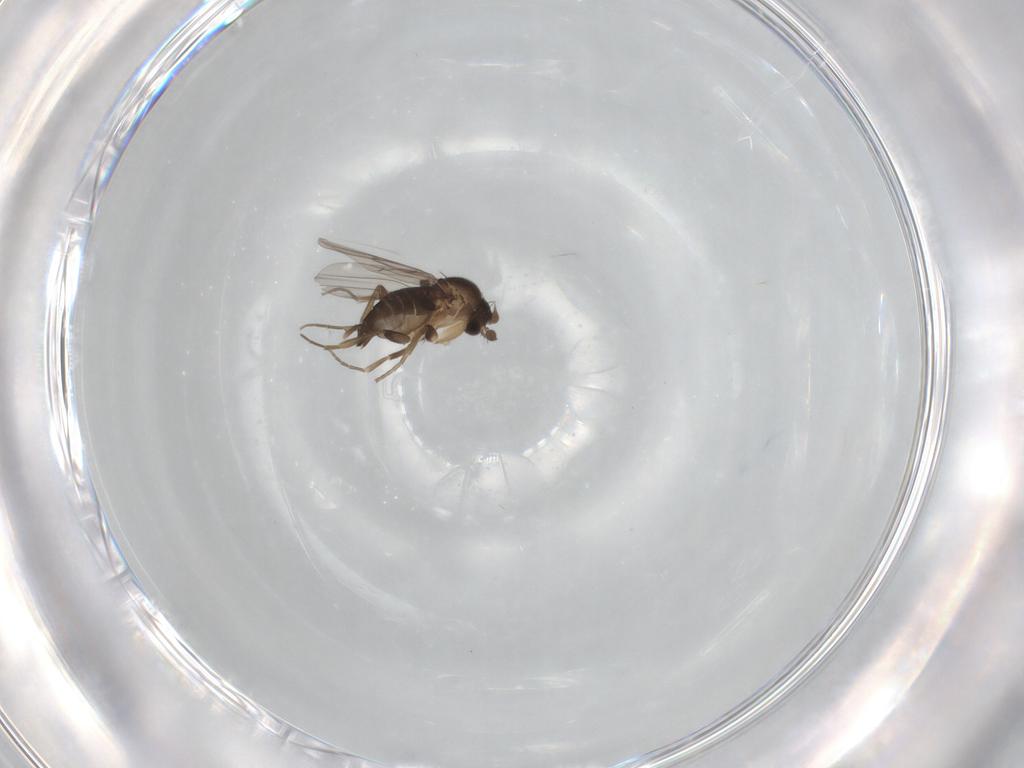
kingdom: Animalia
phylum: Arthropoda
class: Insecta
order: Diptera
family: Phoridae
